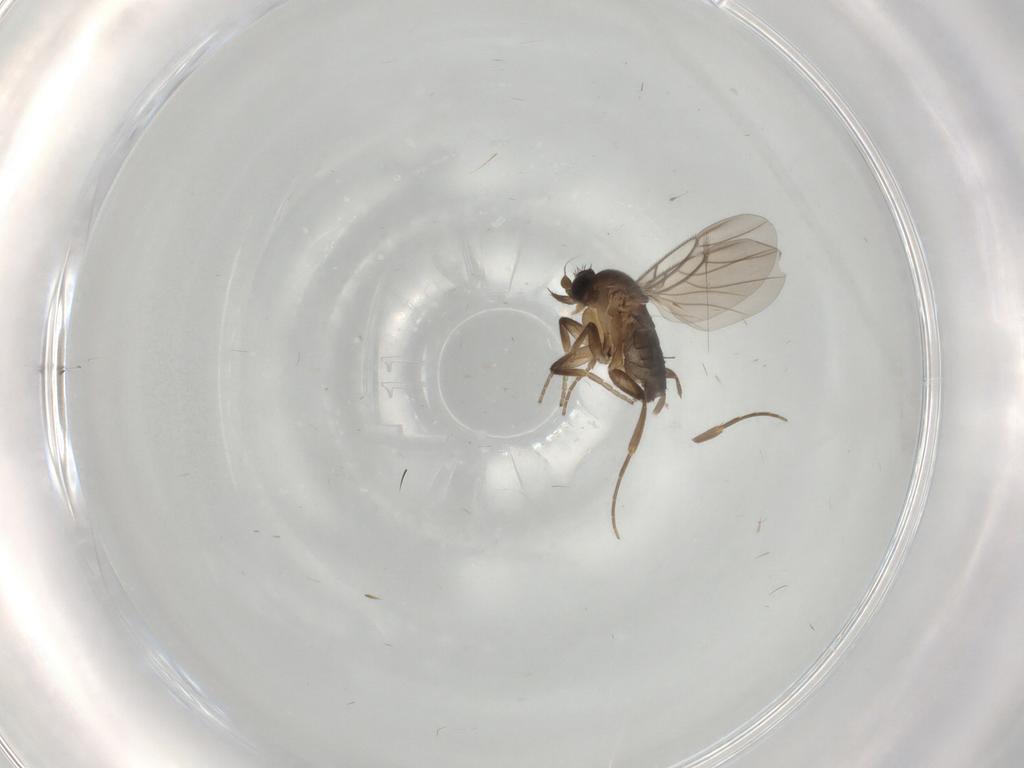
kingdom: Animalia
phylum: Arthropoda
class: Insecta
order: Diptera
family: Phoridae
